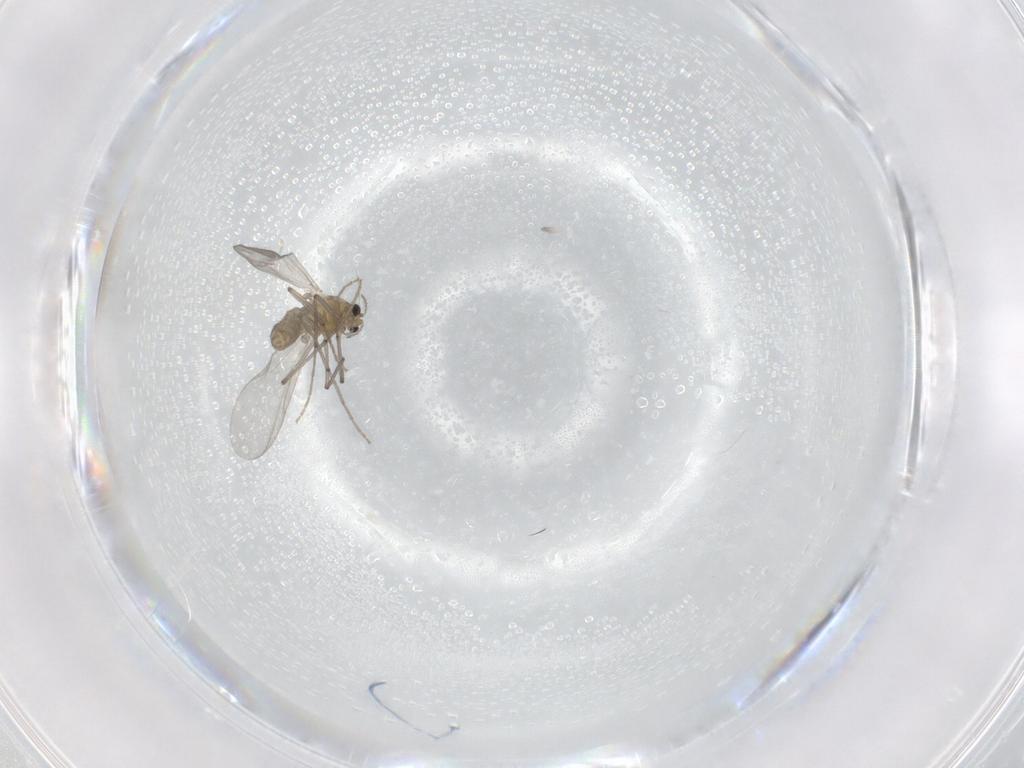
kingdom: Animalia
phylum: Arthropoda
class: Insecta
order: Diptera
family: Chironomidae
